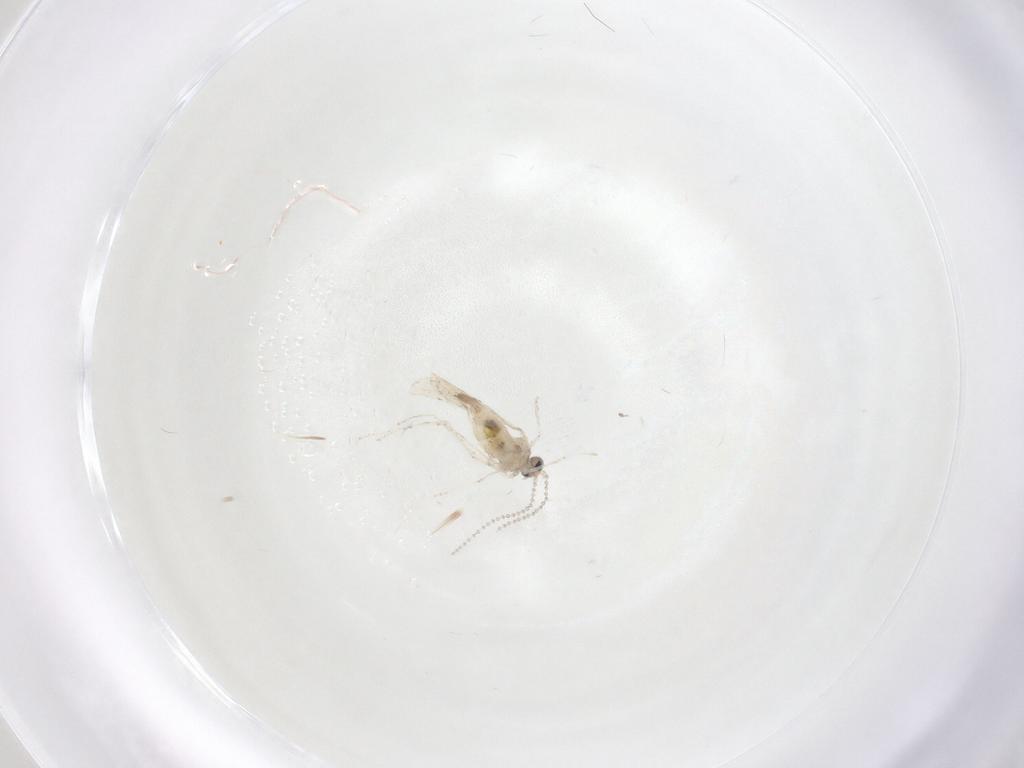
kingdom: Animalia
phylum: Arthropoda
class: Insecta
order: Diptera
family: Cecidomyiidae
